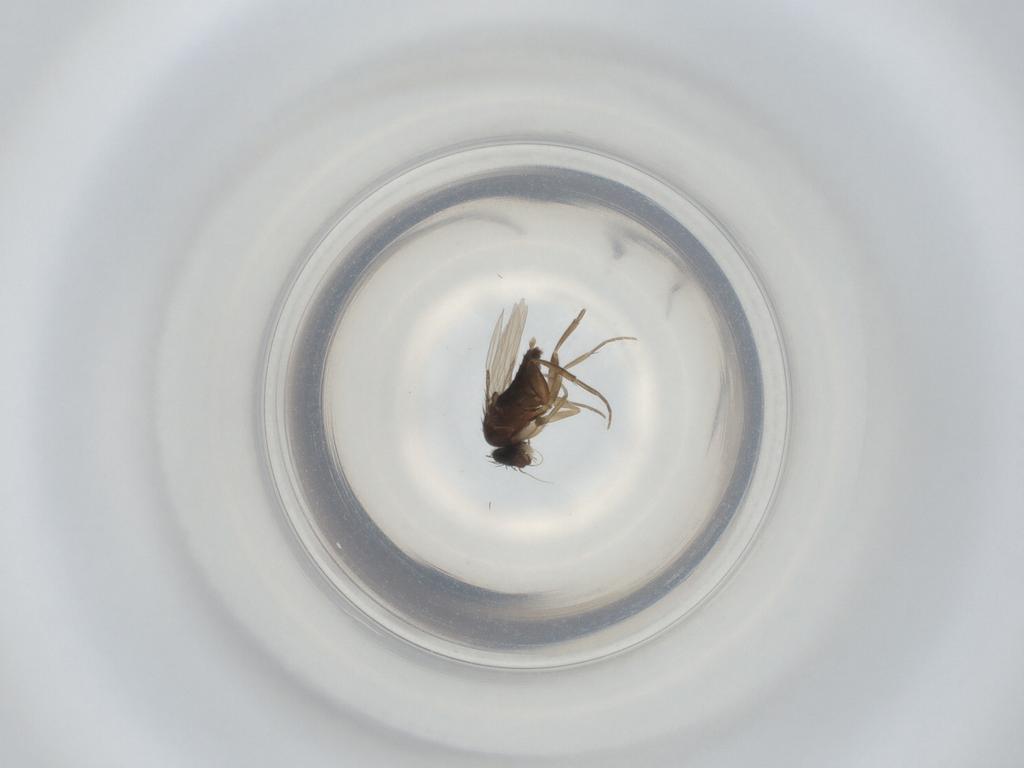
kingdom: Animalia
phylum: Arthropoda
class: Insecta
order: Diptera
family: Phoridae
